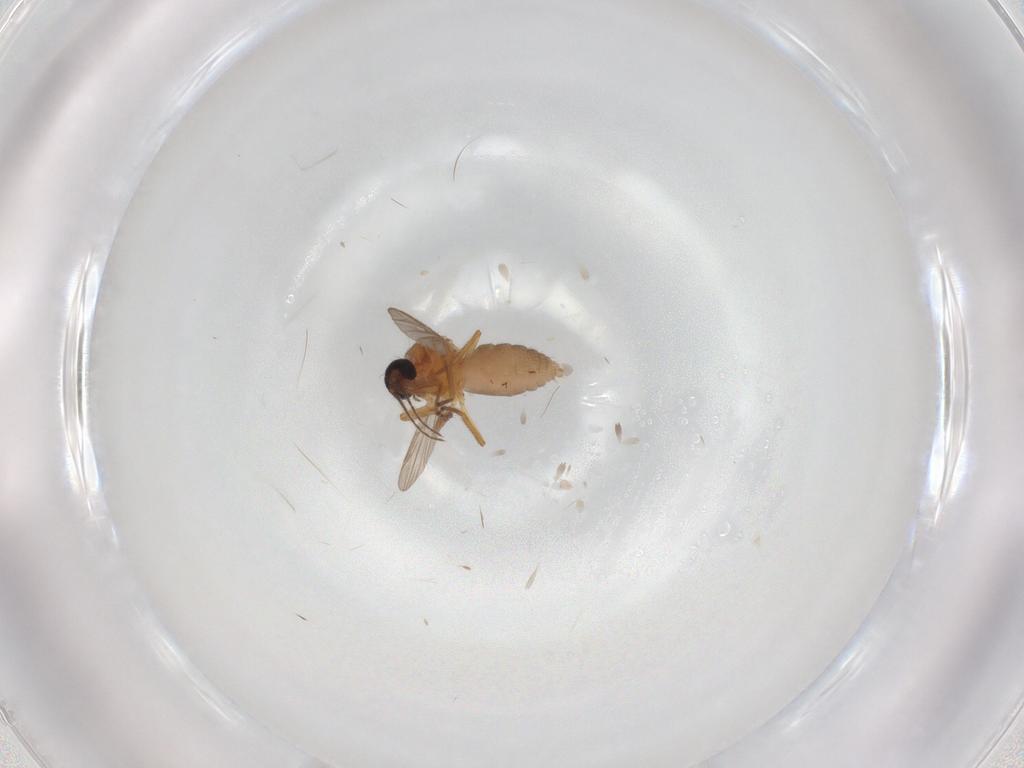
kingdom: Animalia
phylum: Arthropoda
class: Insecta
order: Diptera
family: Ceratopogonidae
